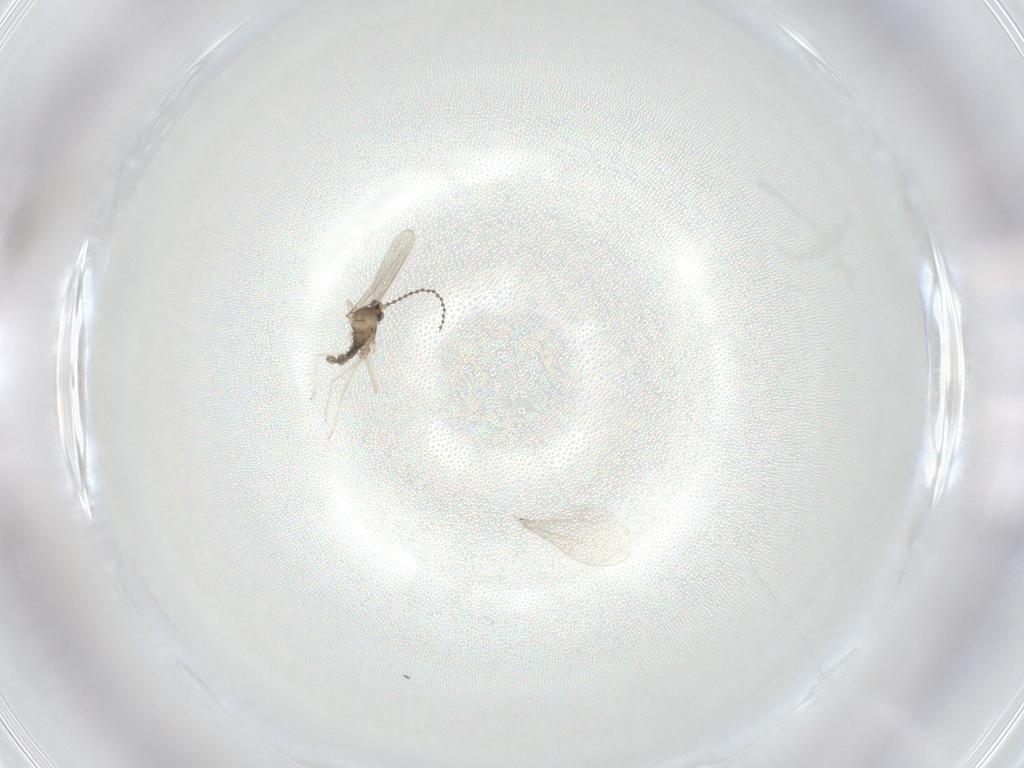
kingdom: Animalia
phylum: Arthropoda
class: Insecta
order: Diptera
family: Cecidomyiidae
